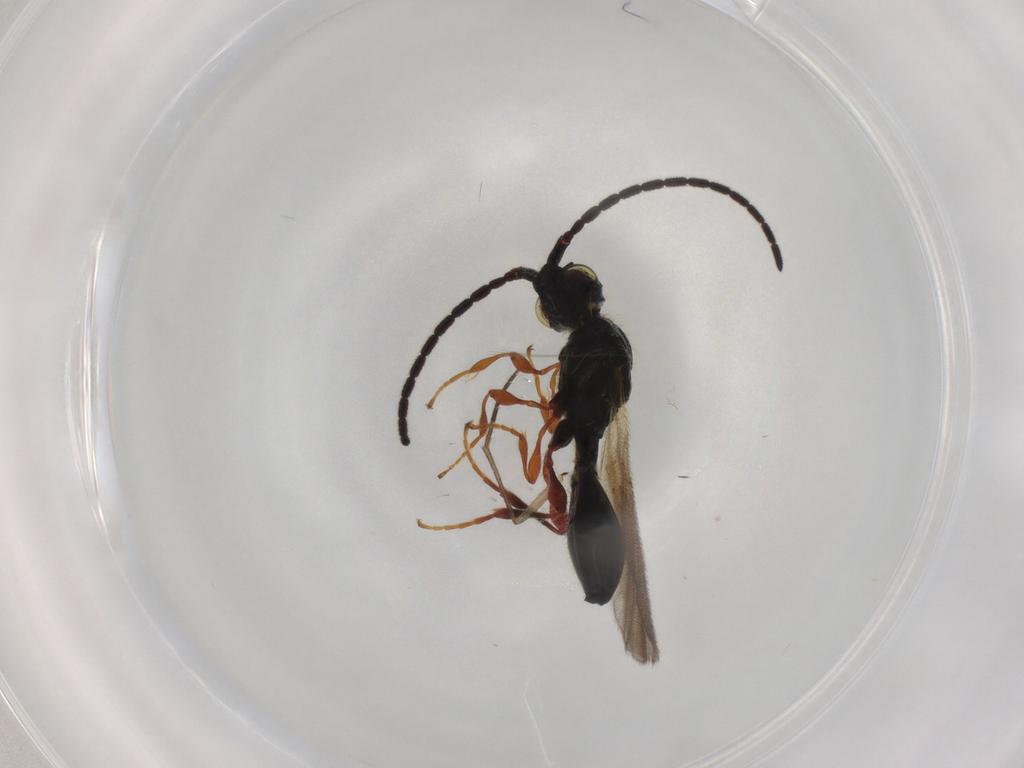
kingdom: Animalia
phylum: Arthropoda
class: Insecta
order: Hymenoptera
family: Diapriidae
